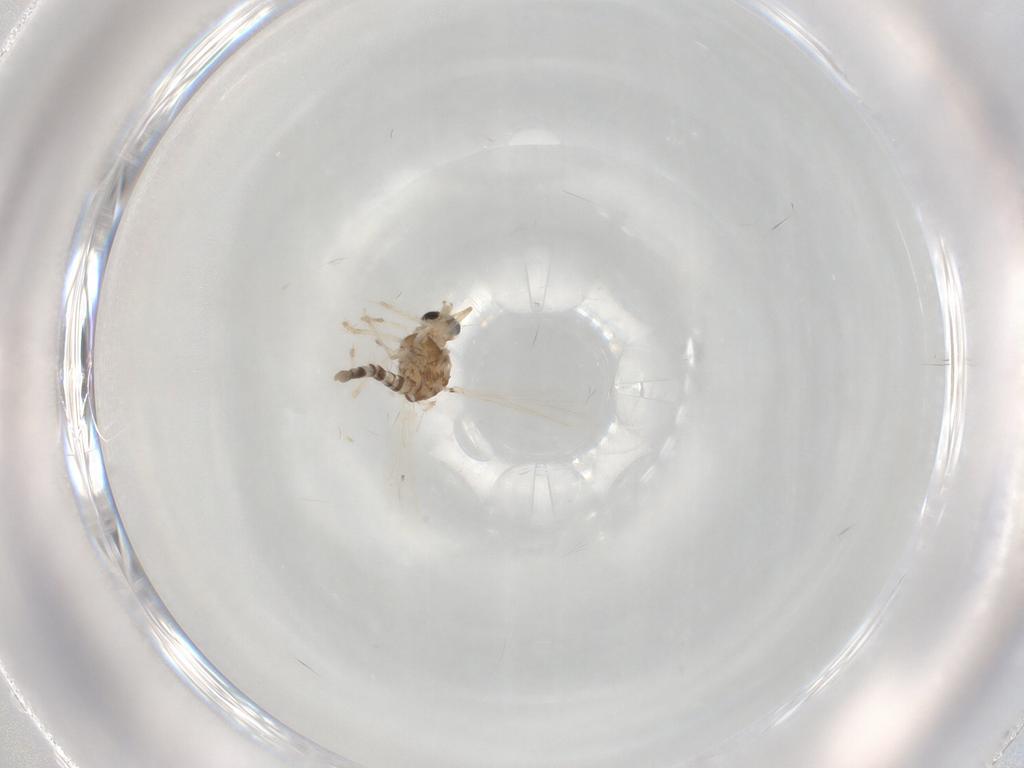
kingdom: Animalia
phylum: Arthropoda
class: Insecta
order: Diptera
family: Chironomidae
